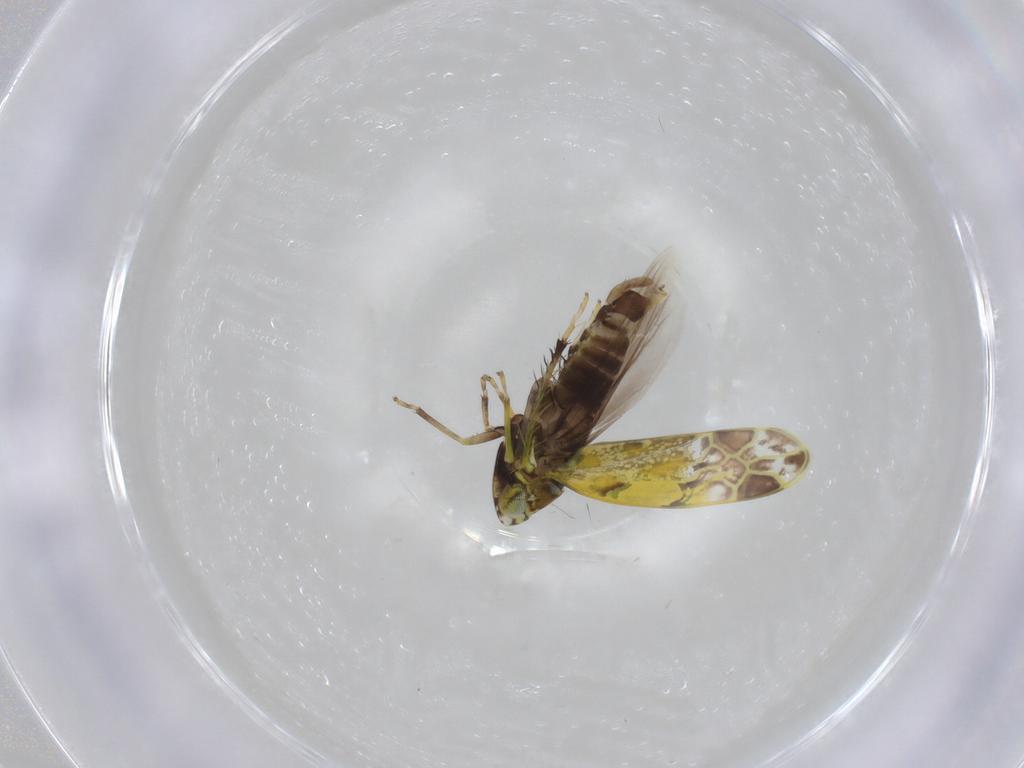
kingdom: Animalia
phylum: Arthropoda
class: Insecta
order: Hemiptera
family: Cicadellidae
